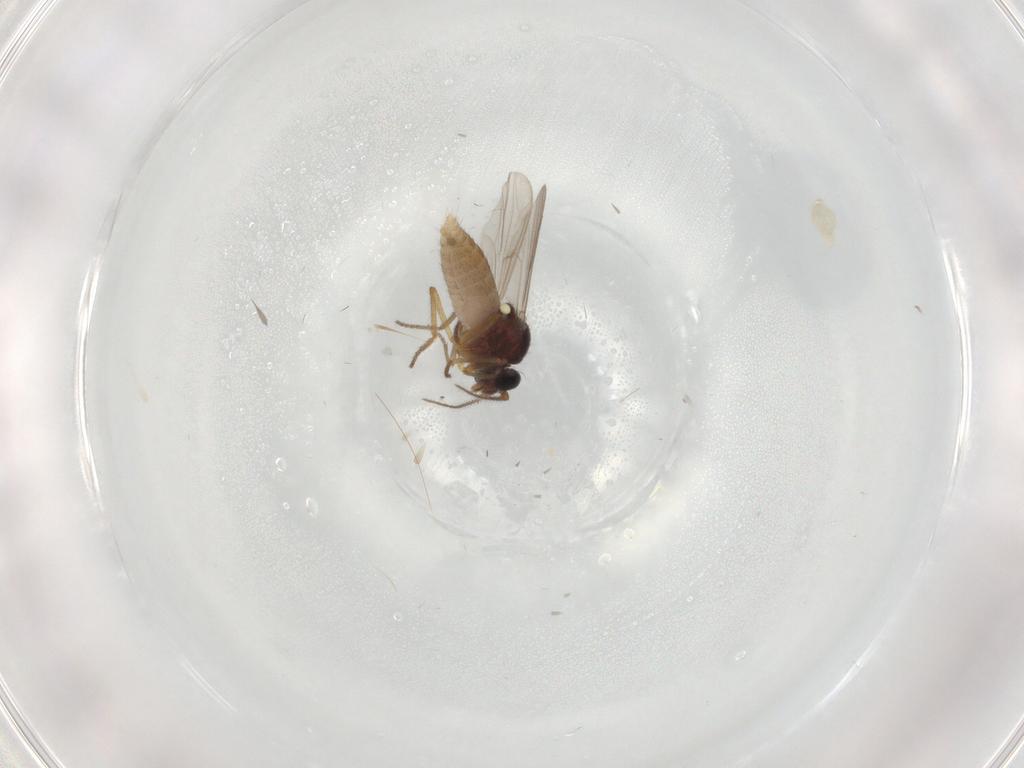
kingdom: Animalia
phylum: Arthropoda
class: Insecta
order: Diptera
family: Ceratopogonidae
